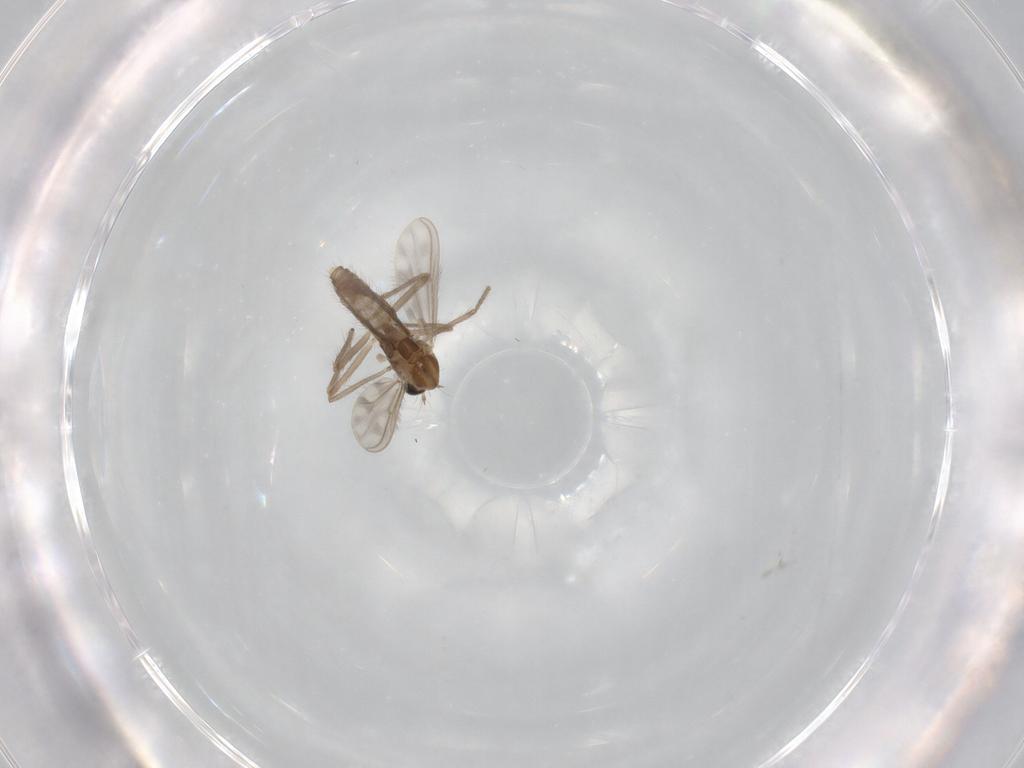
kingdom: Animalia
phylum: Arthropoda
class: Insecta
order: Diptera
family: Chironomidae
